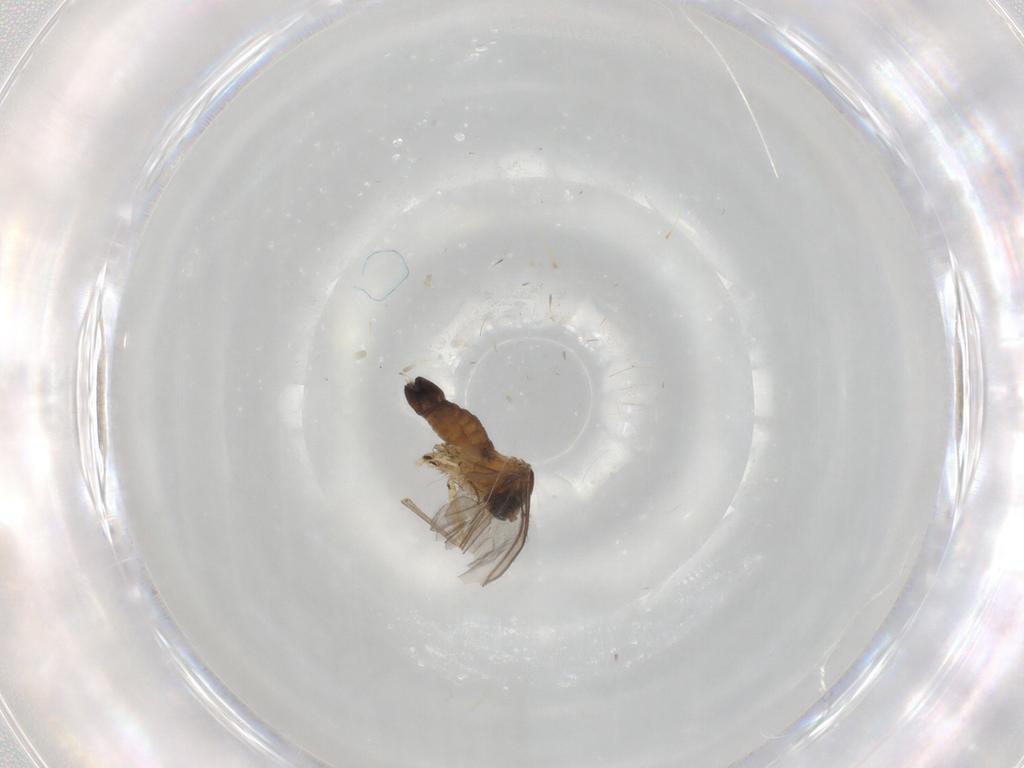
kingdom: Animalia
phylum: Arthropoda
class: Insecta
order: Diptera
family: Sciaridae
